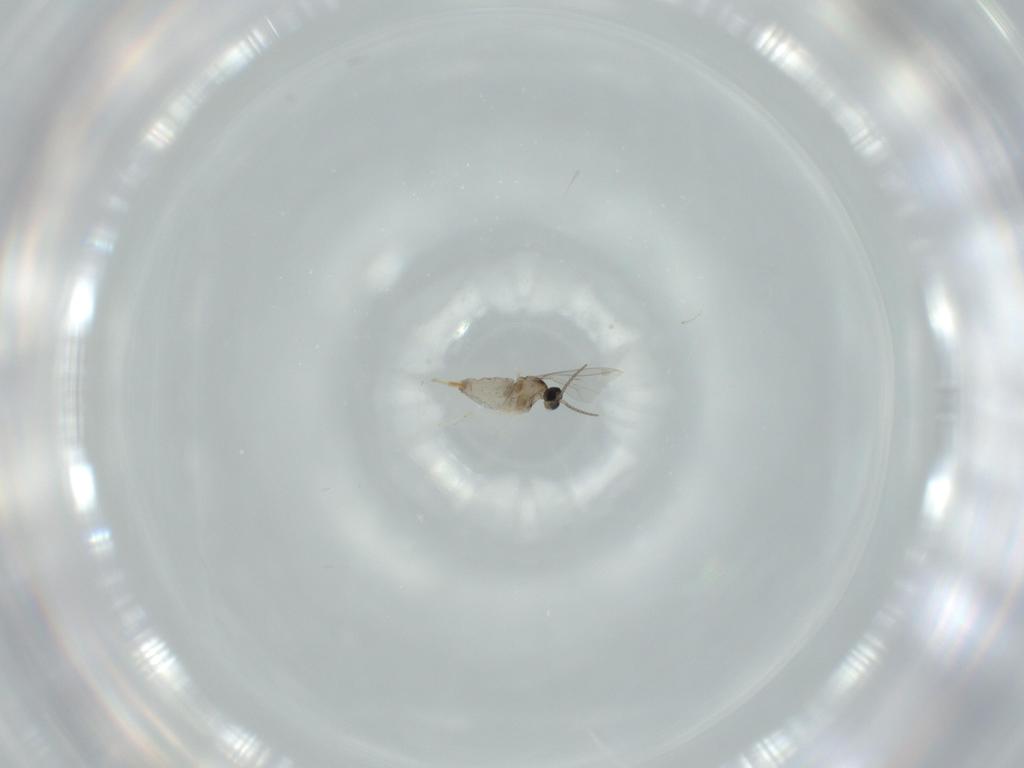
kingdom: Animalia
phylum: Arthropoda
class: Insecta
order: Diptera
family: Cecidomyiidae
